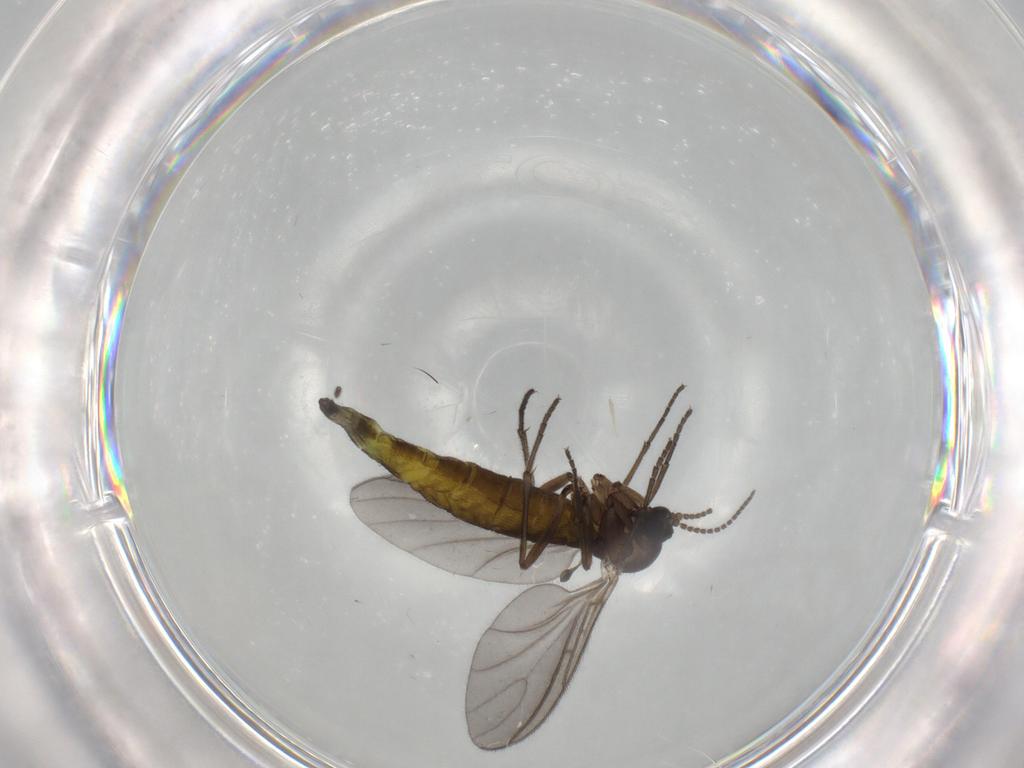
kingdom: Animalia
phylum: Arthropoda
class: Insecta
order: Diptera
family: Sciaridae
